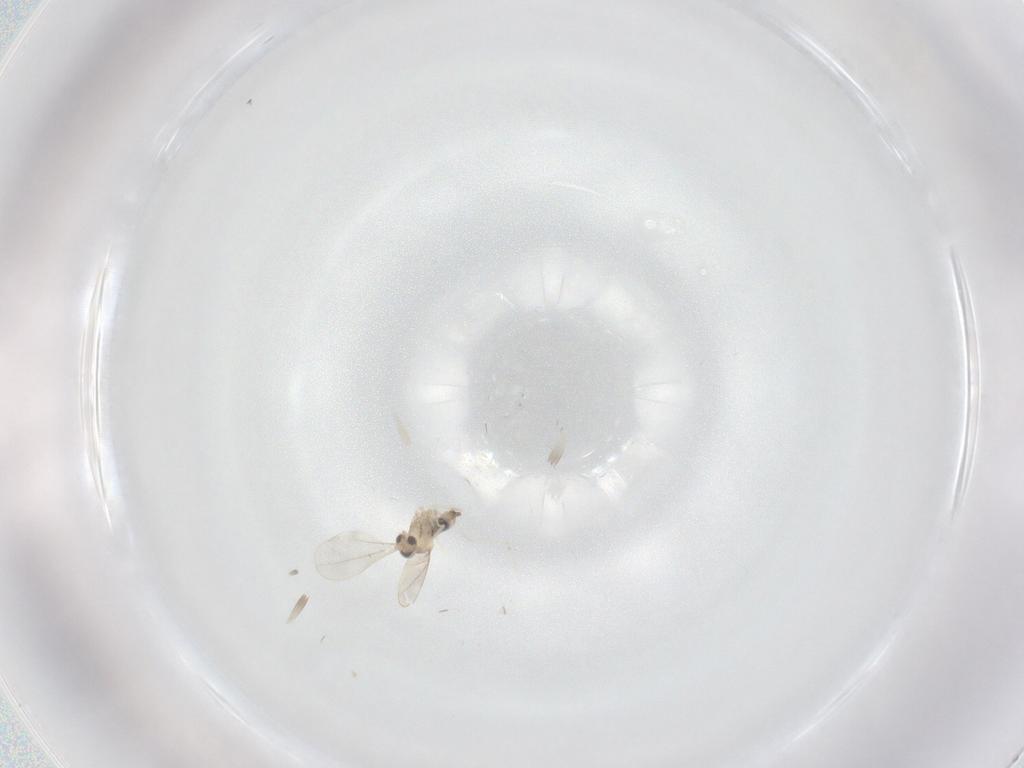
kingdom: Animalia
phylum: Arthropoda
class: Insecta
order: Diptera
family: Cecidomyiidae
